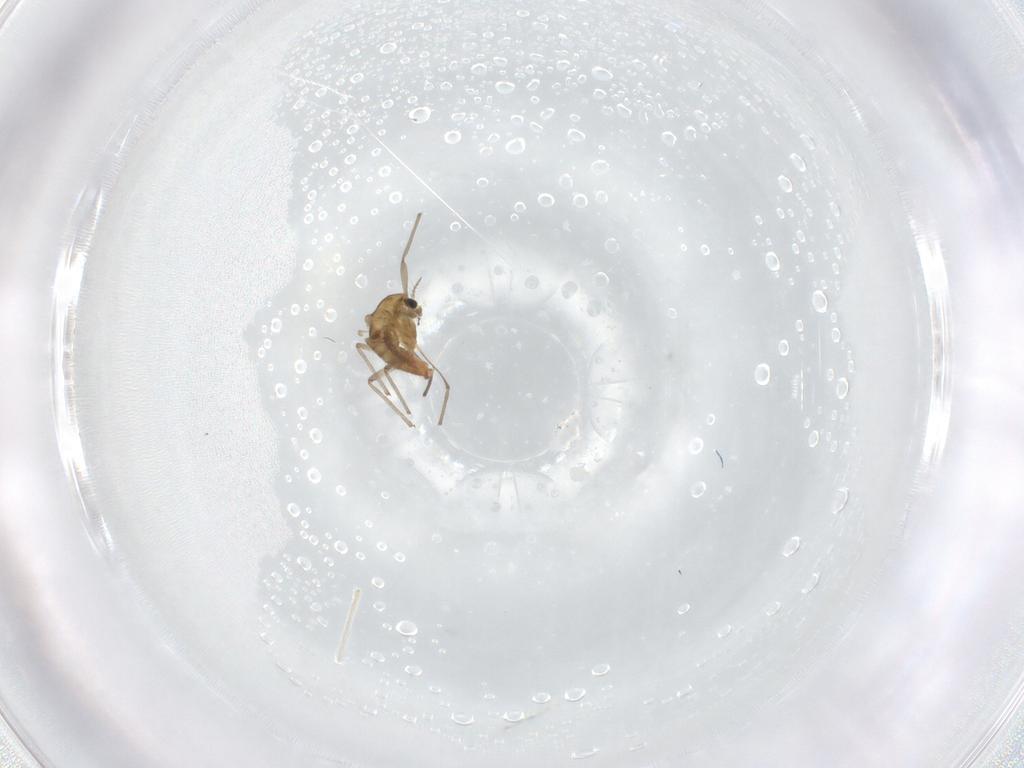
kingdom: Animalia
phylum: Arthropoda
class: Insecta
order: Diptera
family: Chironomidae
